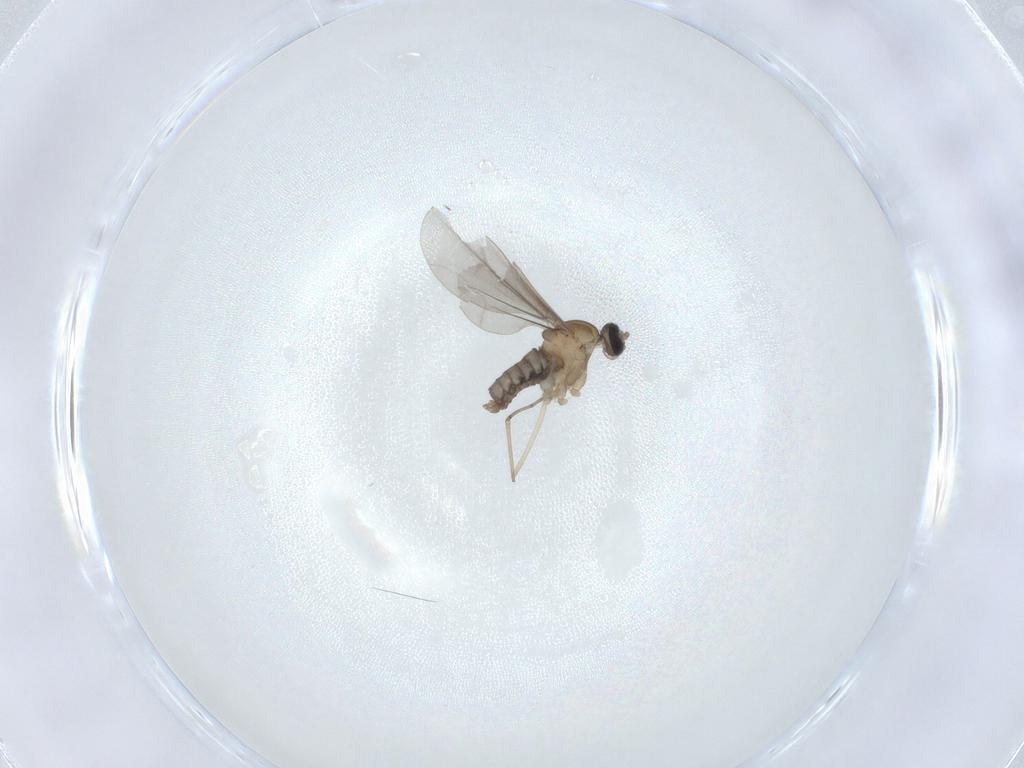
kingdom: Animalia
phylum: Arthropoda
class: Insecta
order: Diptera
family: Cecidomyiidae
